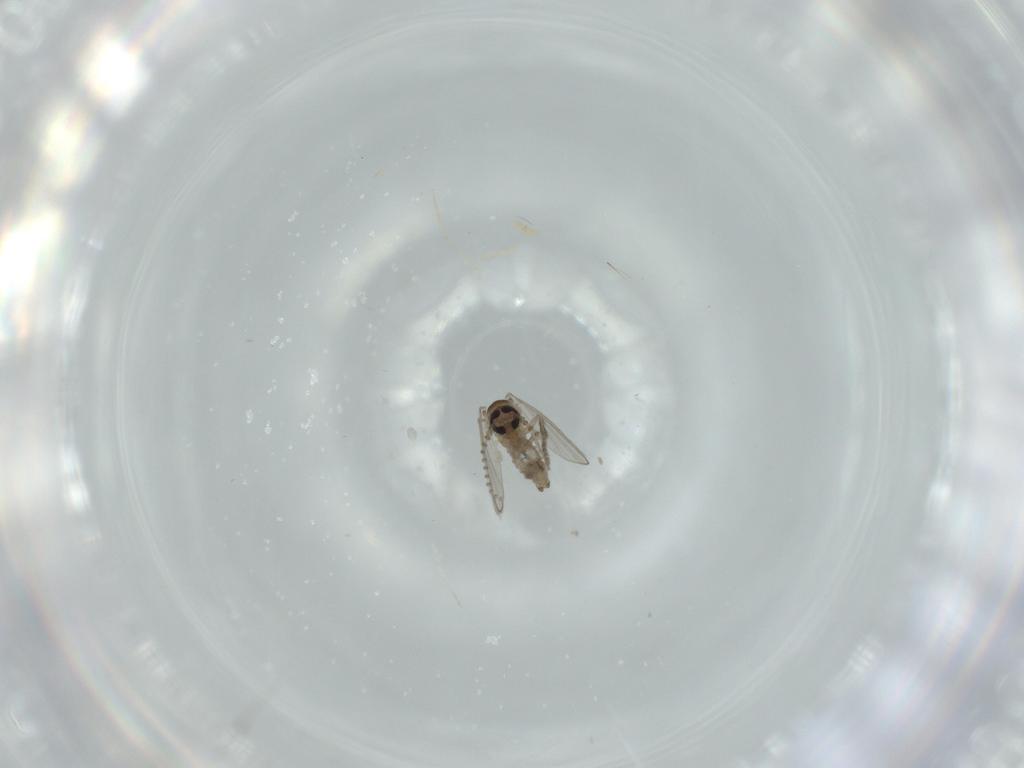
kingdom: Animalia
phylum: Arthropoda
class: Insecta
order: Diptera
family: Psychodidae
